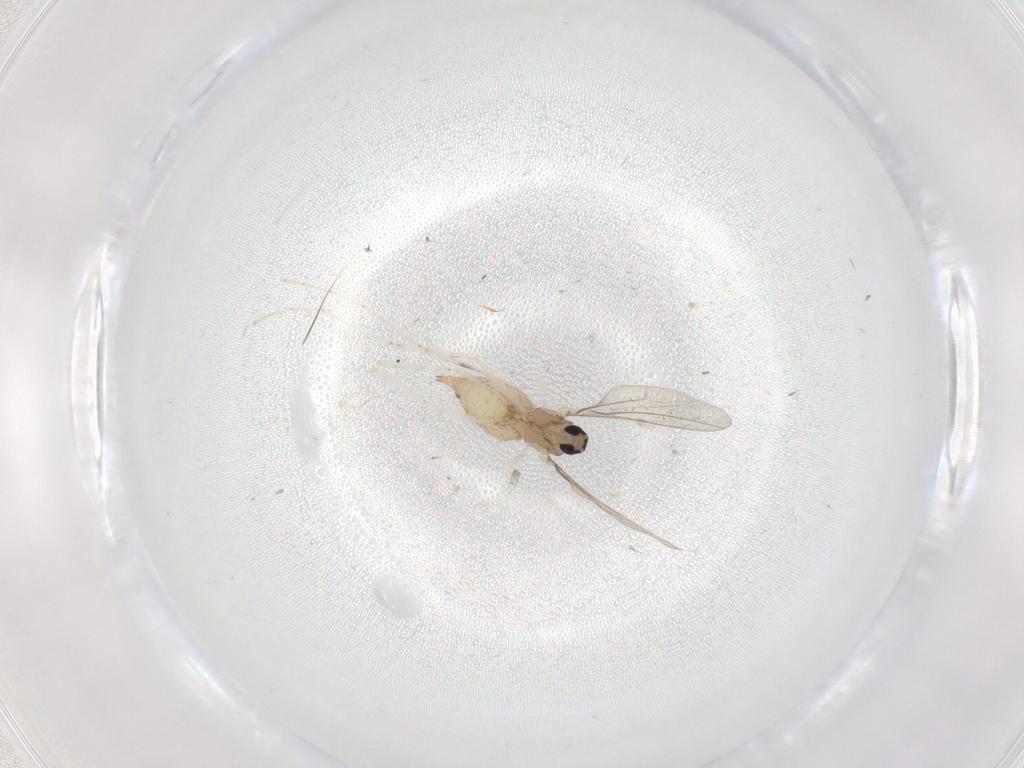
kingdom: Animalia
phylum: Arthropoda
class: Insecta
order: Diptera
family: Cecidomyiidae
